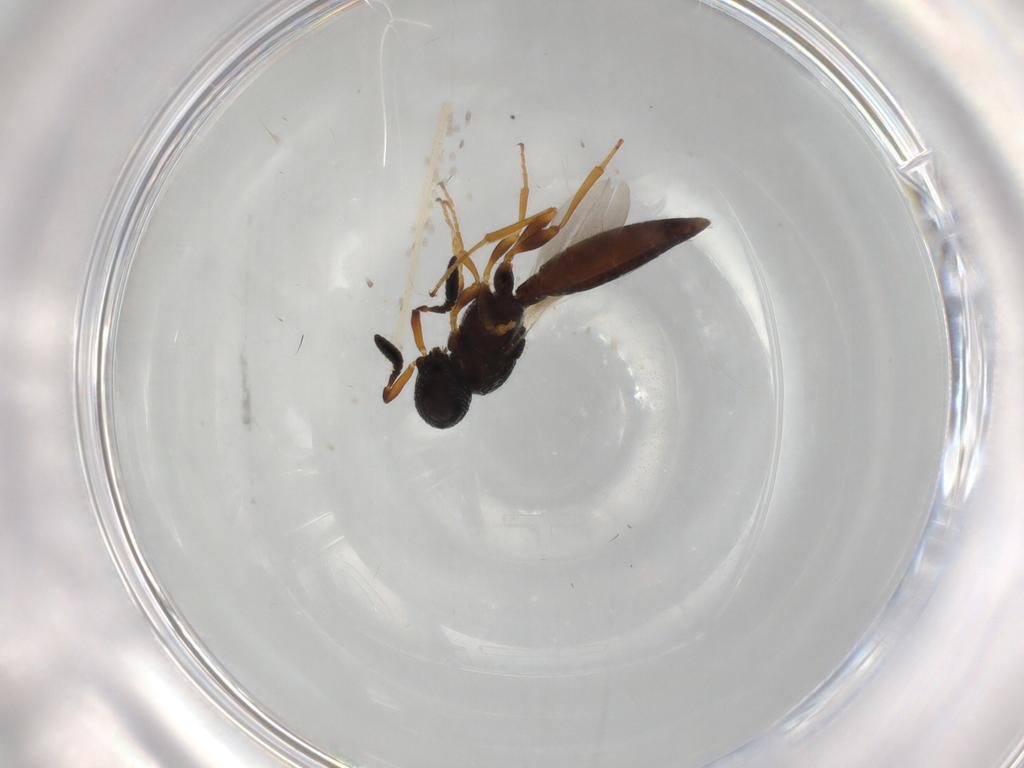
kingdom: Animalia
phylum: Arthropoda
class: Insecta
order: Hymenoptera
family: Scelionidae
